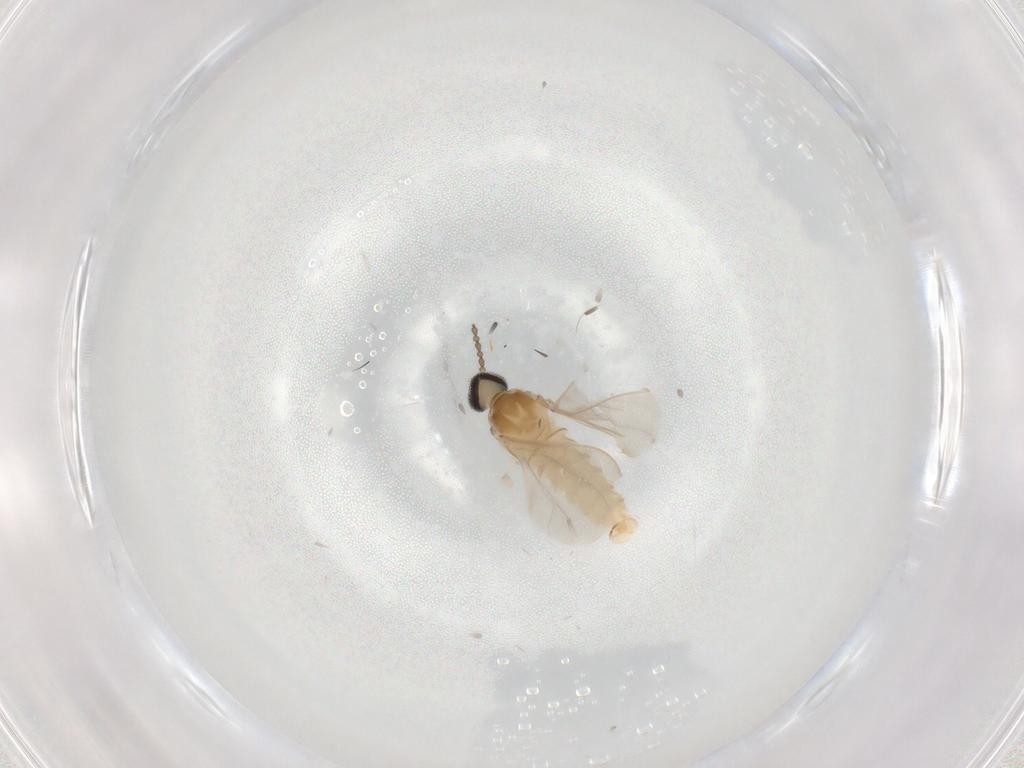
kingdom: Animalia
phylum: Arthropoda
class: Insecta
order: Diptera
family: Cecidomyiidae
